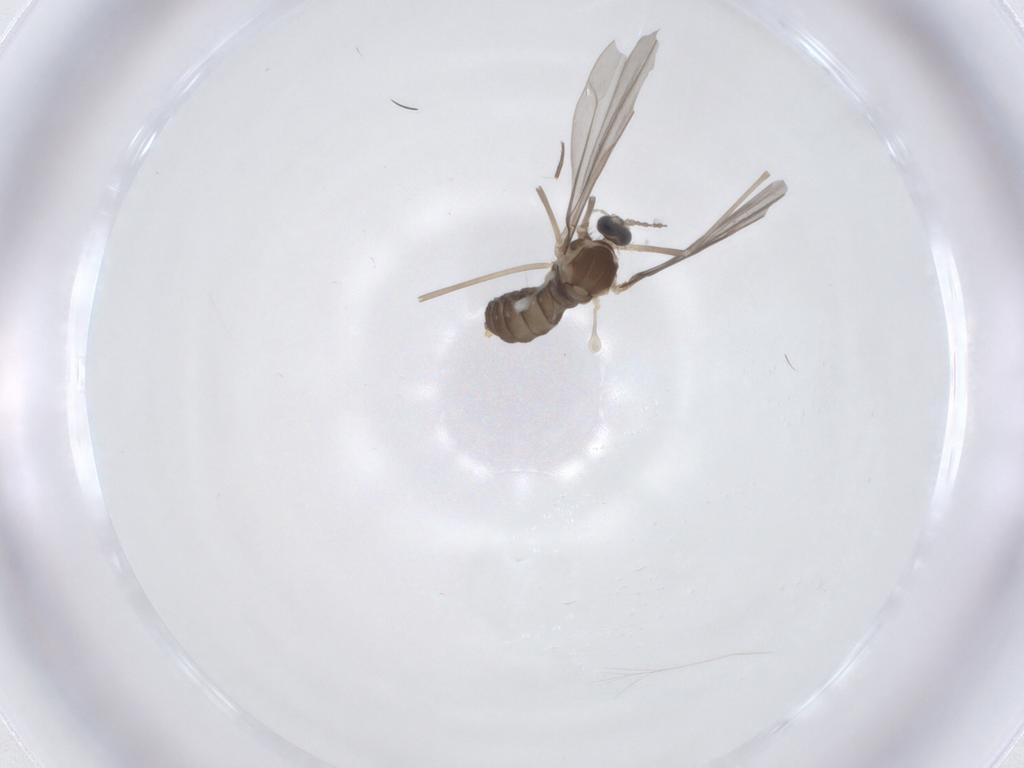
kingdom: Animalia
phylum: Arthropoda
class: Insecta
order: Diptera
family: Cecidomyiidae
